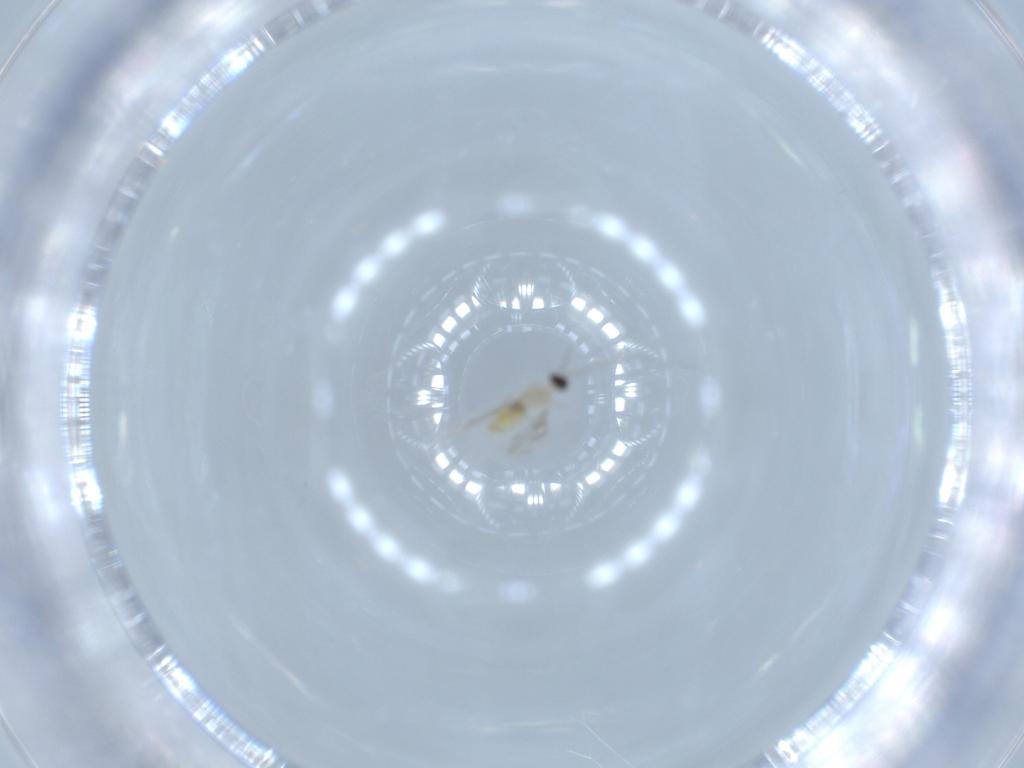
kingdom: Animalia
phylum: Arthropoda
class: Insecta
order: Diptera
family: Cecidomyiidae
